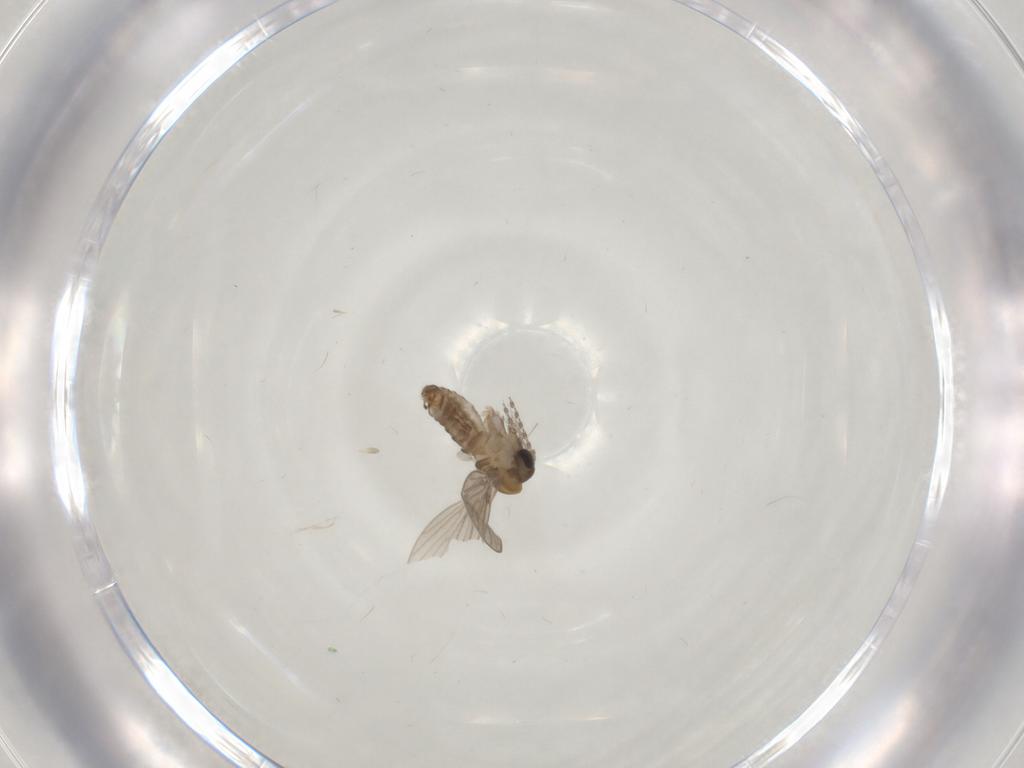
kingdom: Animalia
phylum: Arthropoda
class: Insecta
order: Diptera
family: Psychodidae
